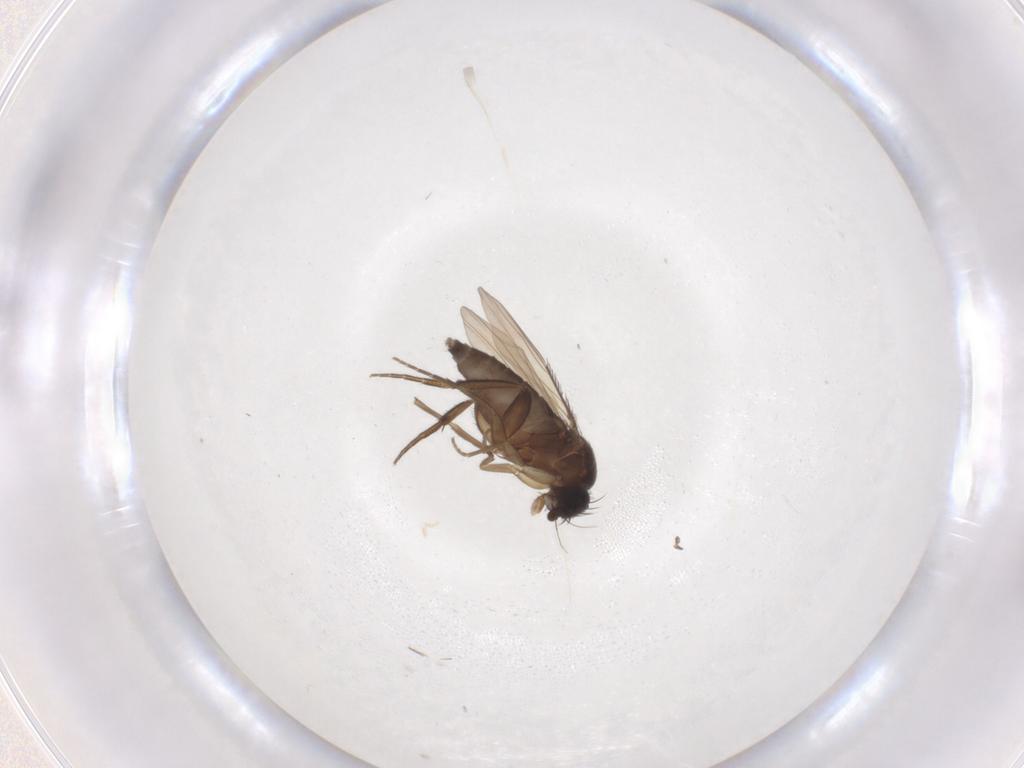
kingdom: Animalia
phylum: Arthropoda
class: Insecta
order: Diptera
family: Phoridae
